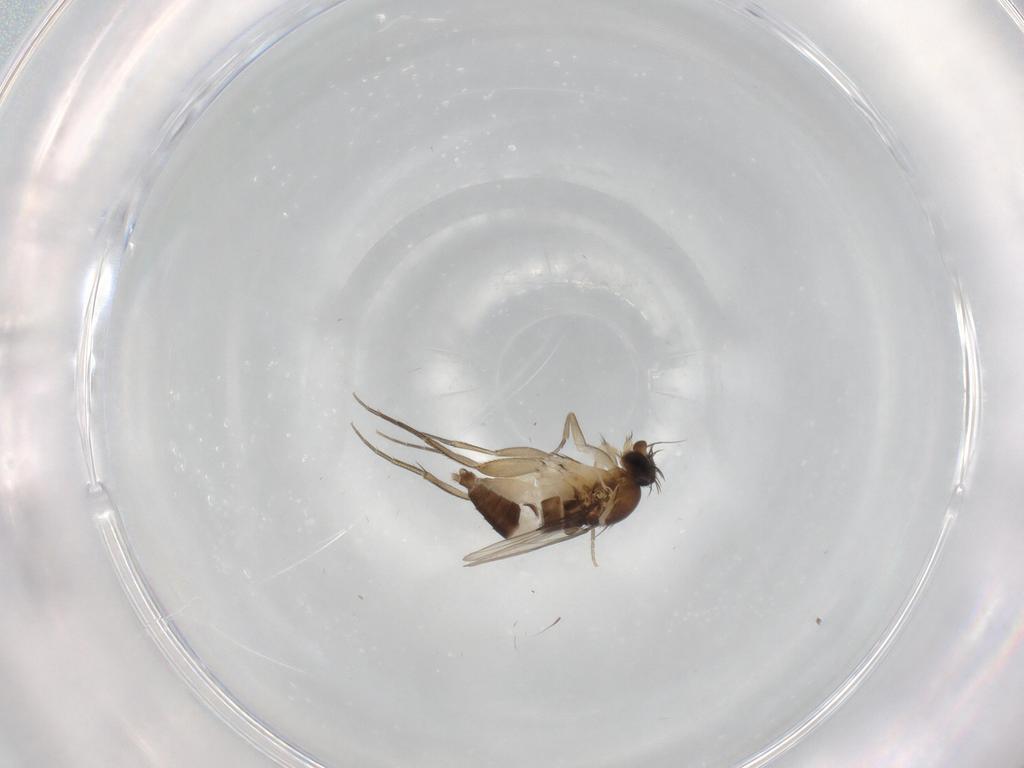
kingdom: Animalia
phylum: Arthropoda
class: Insecta
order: Diptera
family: Phoridae
